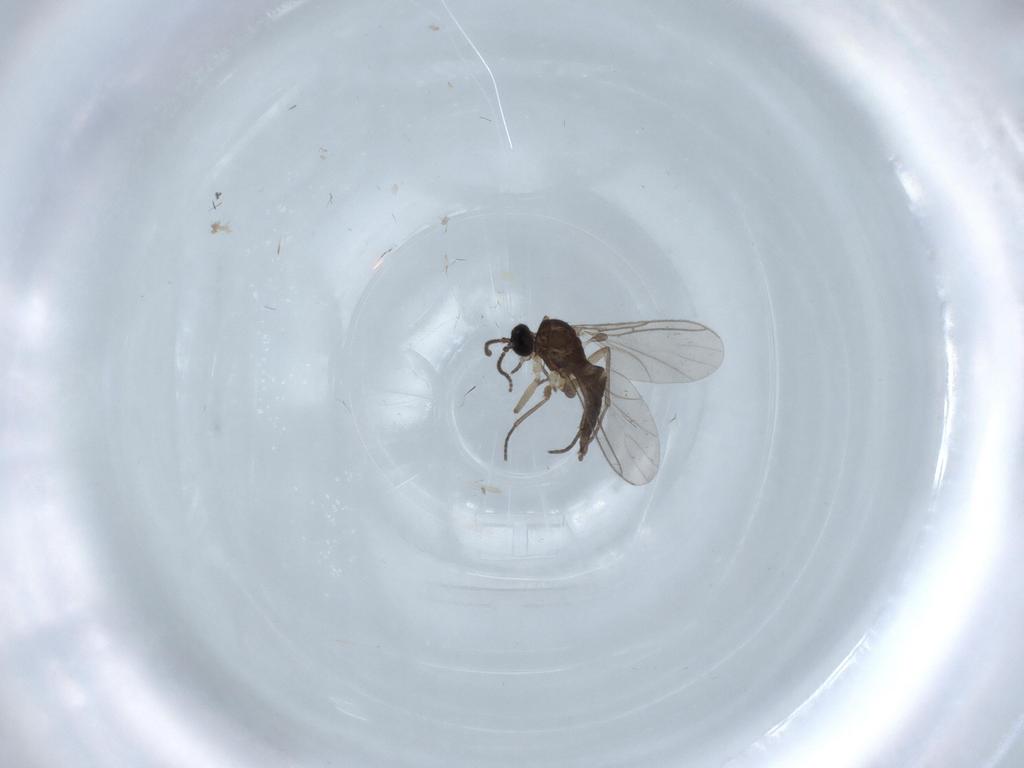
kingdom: Animalia
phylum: Arthropoda
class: Insecta
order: Diptera
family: Sciaridae
